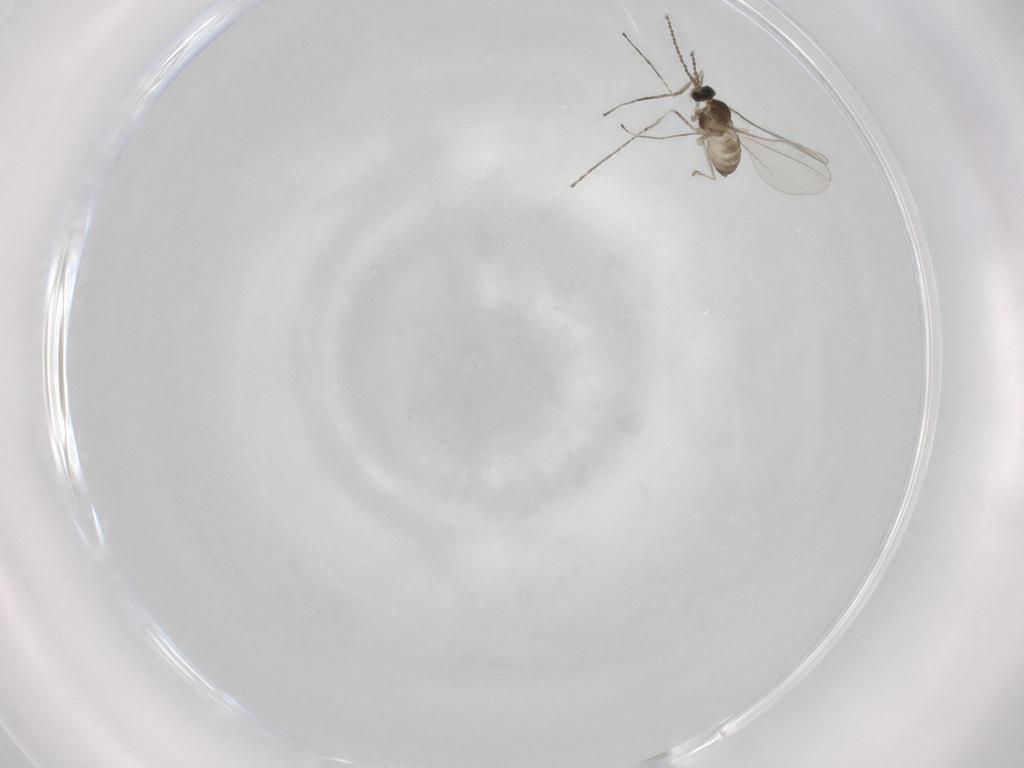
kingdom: Animalia
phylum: Arthropoda
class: Insecta
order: Diptera
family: Cecidomyiidae
